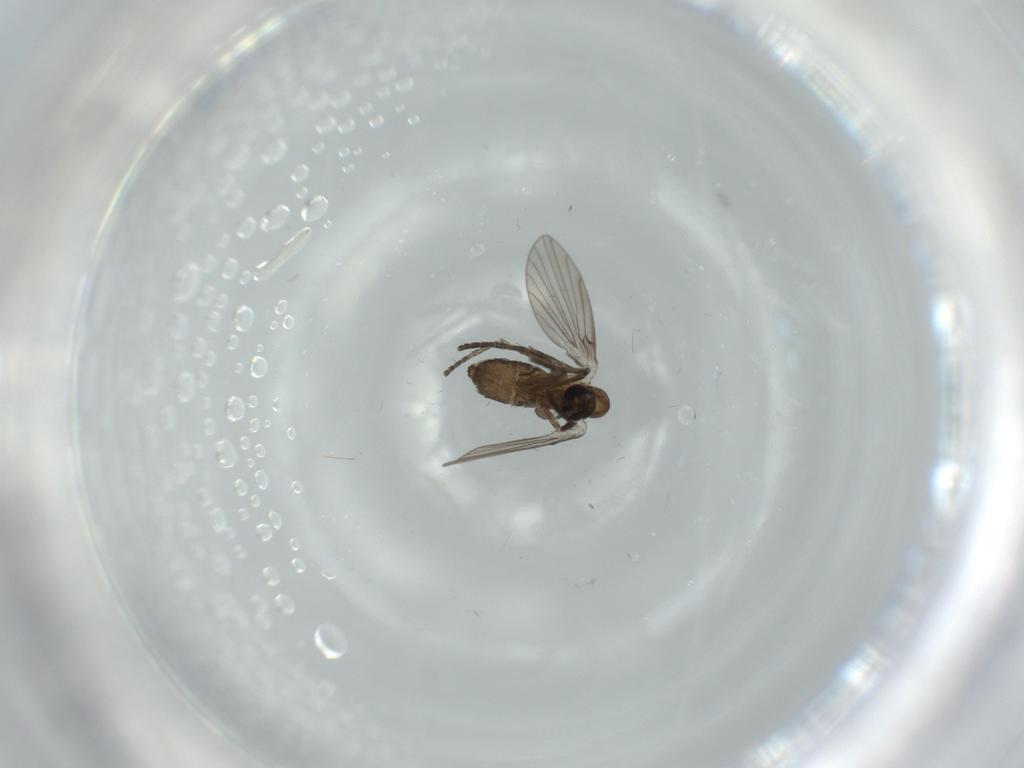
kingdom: Animalia
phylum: Arthropoda
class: Insecta
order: Diptera
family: Psychodidae
